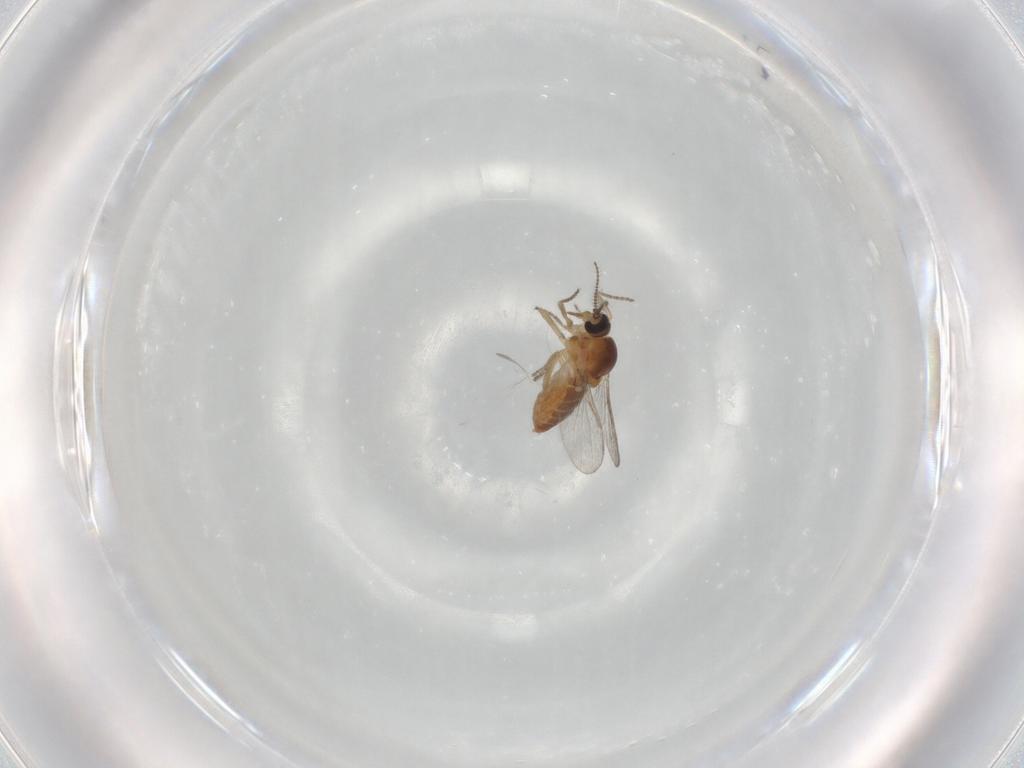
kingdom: Animalia
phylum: Arthropoda
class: Insecta
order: Diptera
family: Ceratopogonidae
